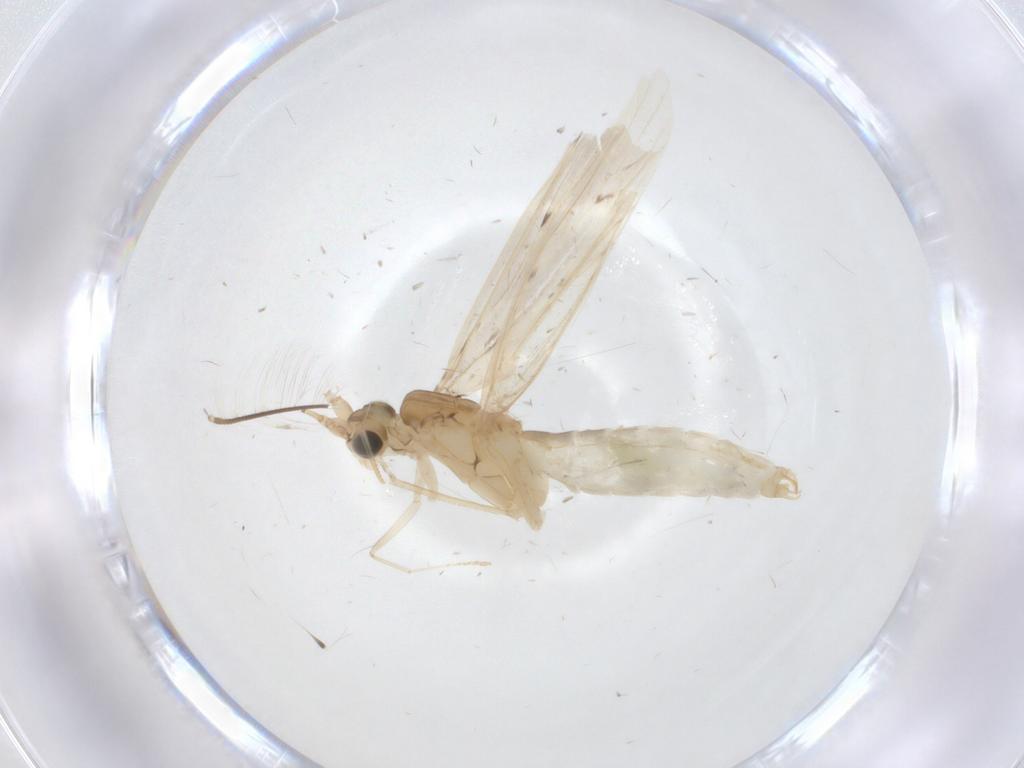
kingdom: Animalia
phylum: Arthropoda
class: Insecta
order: Trichoptera
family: Leptoceridae
